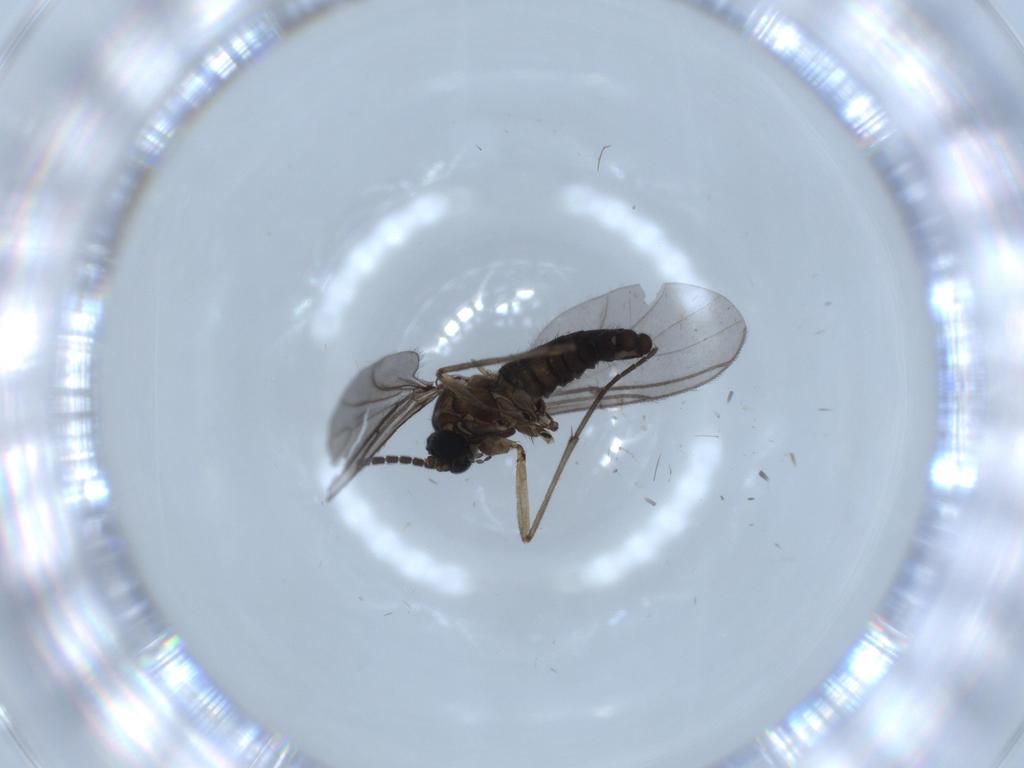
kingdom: Animalia
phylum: Arthropoda
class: Insecta
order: Diptera
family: Sciaridae
